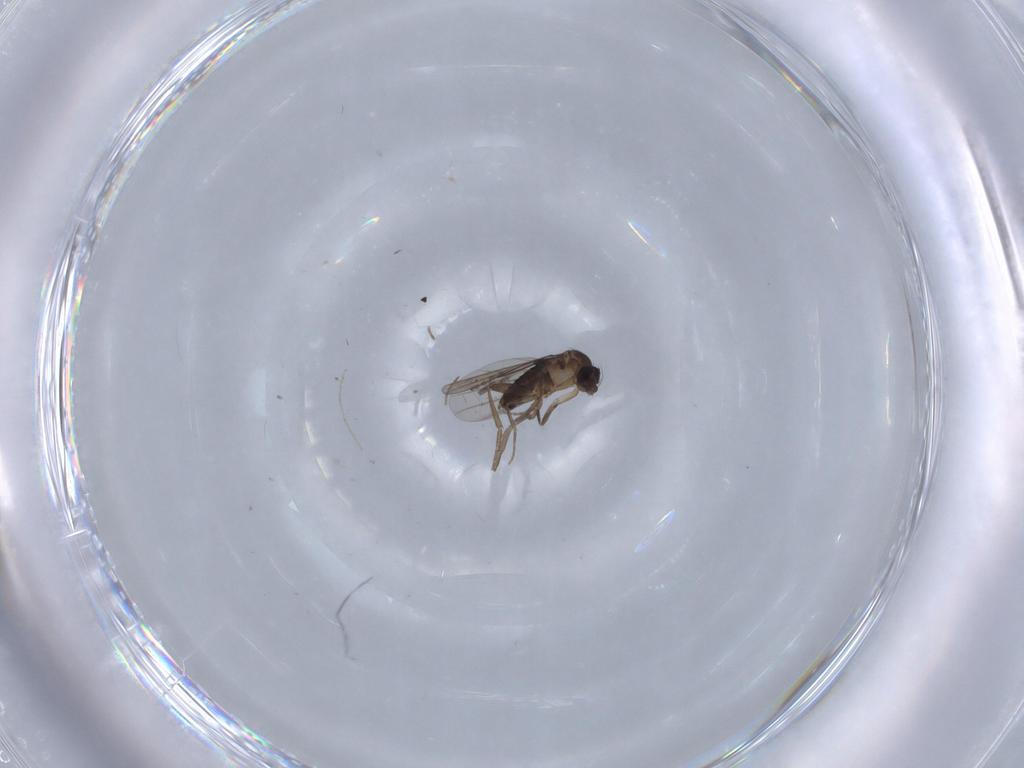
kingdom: Animalia
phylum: Arthropoda
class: Insecta
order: Diptera
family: Phoridae
